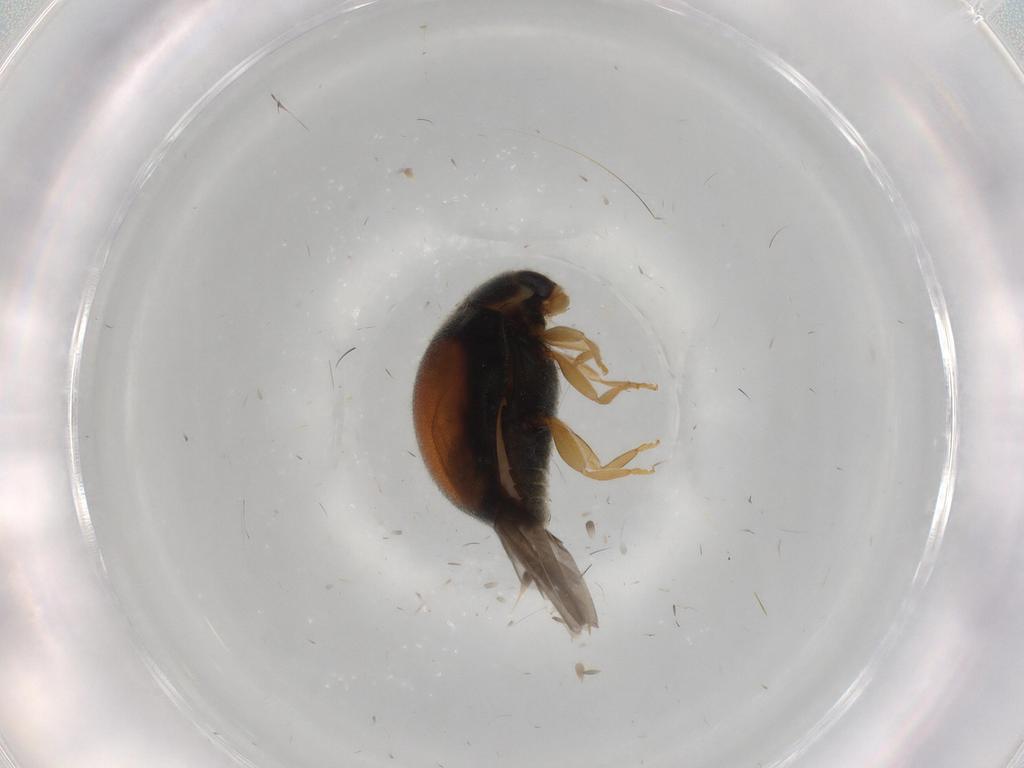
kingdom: Animalia
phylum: Arthropoda
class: Insecta
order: Coleoptera
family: Coccinellidae
